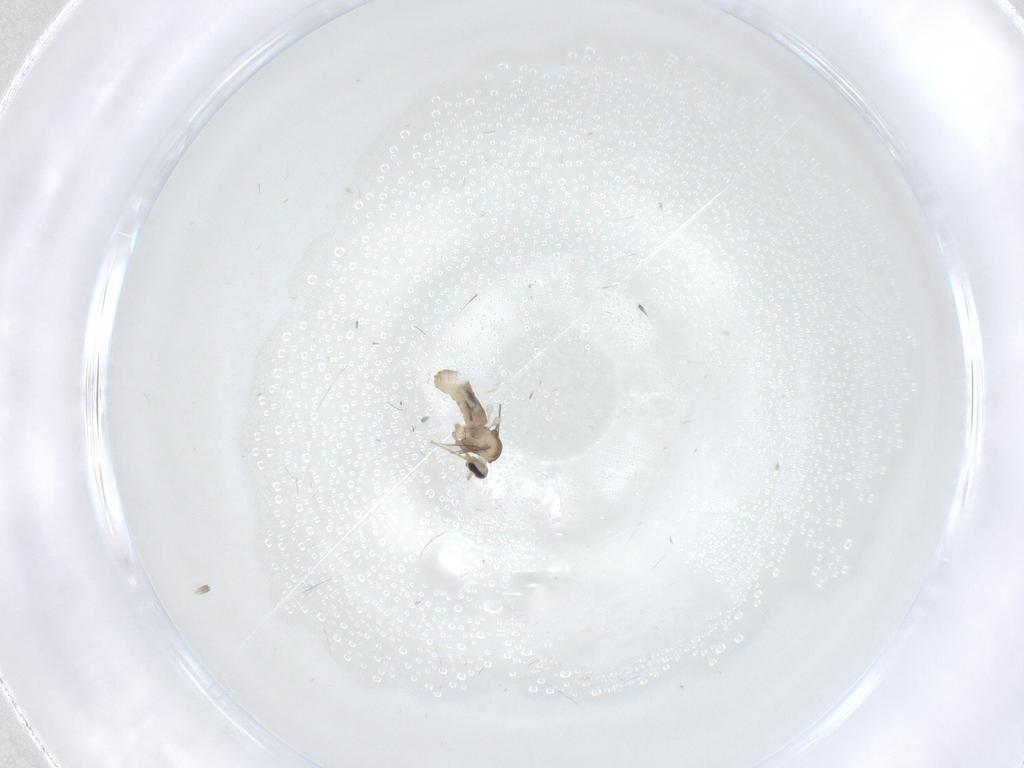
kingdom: Animalia
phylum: Arthropoda
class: Insecta
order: Diptera
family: Cecidomyiidae
